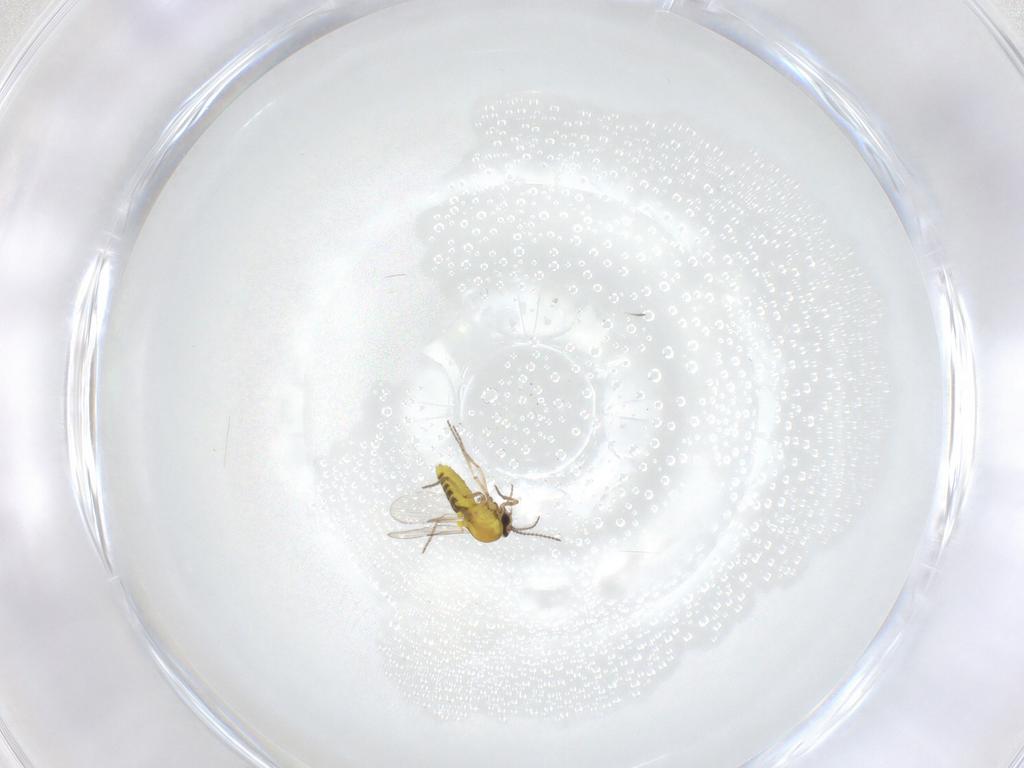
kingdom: Animalia
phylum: Arthropoda
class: Insecta
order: Diptera
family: Ceratopogonidae
